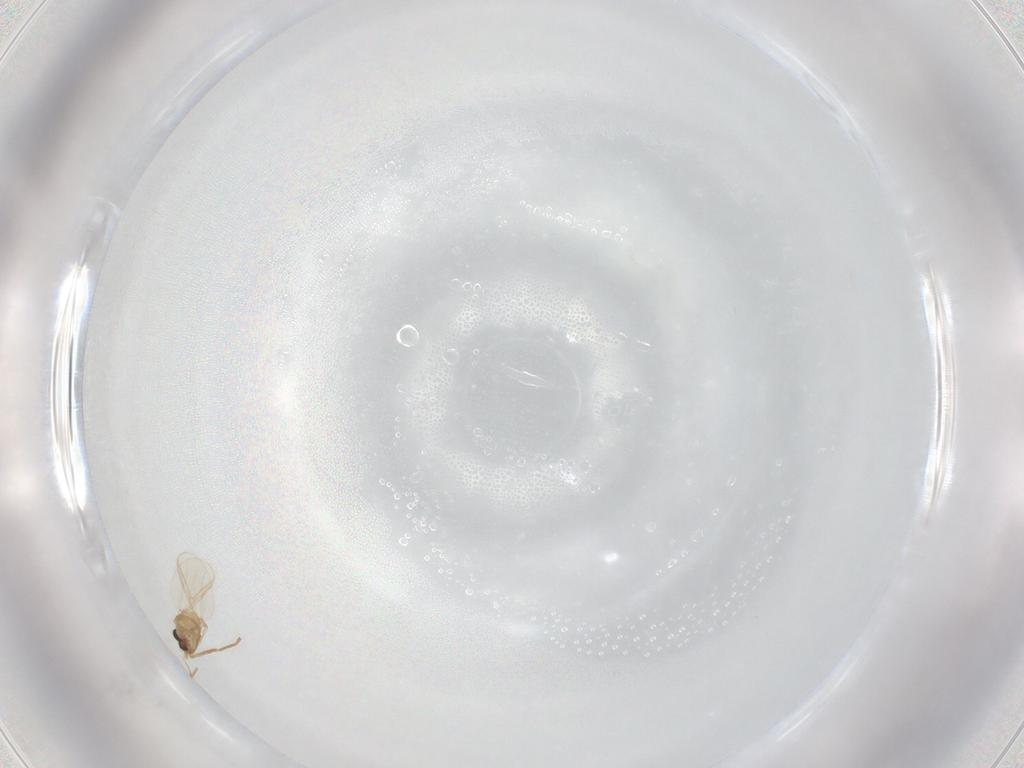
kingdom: Animalia
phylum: Arthropoda
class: Insecta
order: Diptera
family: Chironomidae
